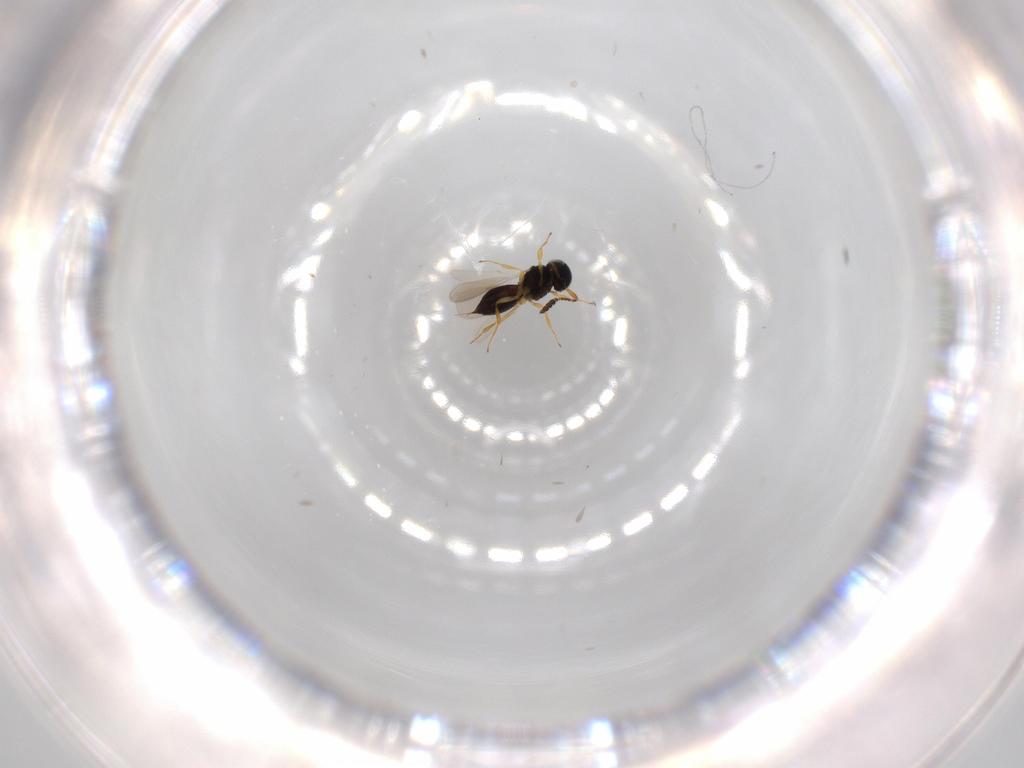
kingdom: Animalia
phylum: Arthropoda
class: Insecta
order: Hymenoptera
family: Scelionidae
